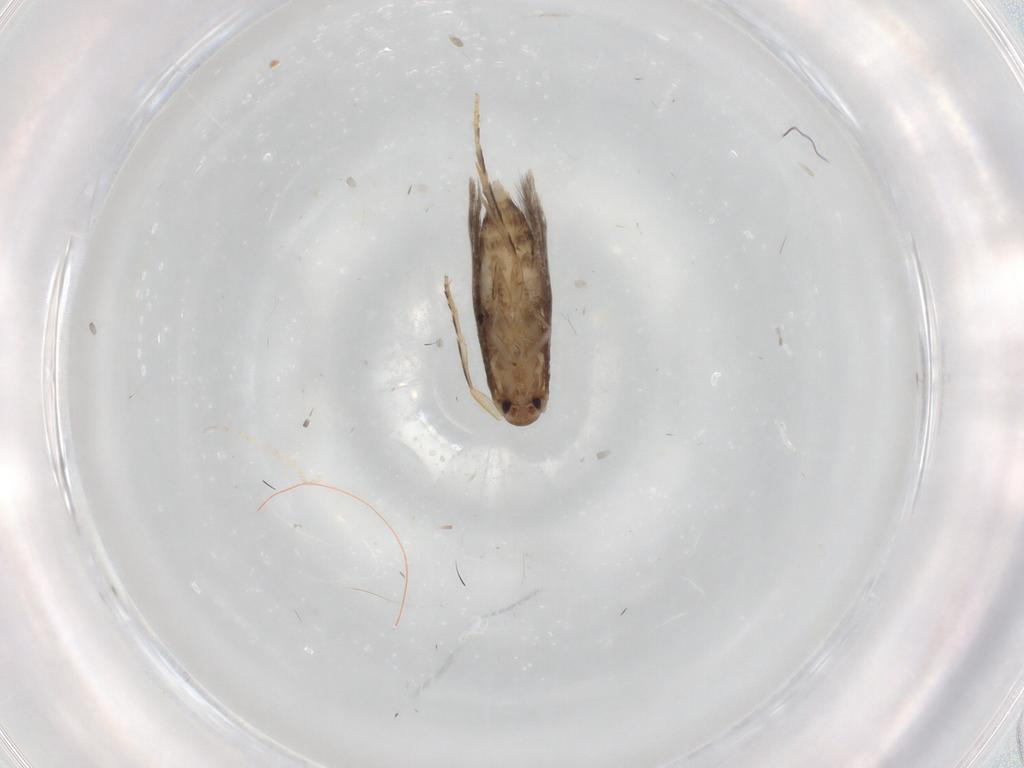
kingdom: Animalia
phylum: Arthropoda
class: Insecta
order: Lepidoptera
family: Elachistidae
